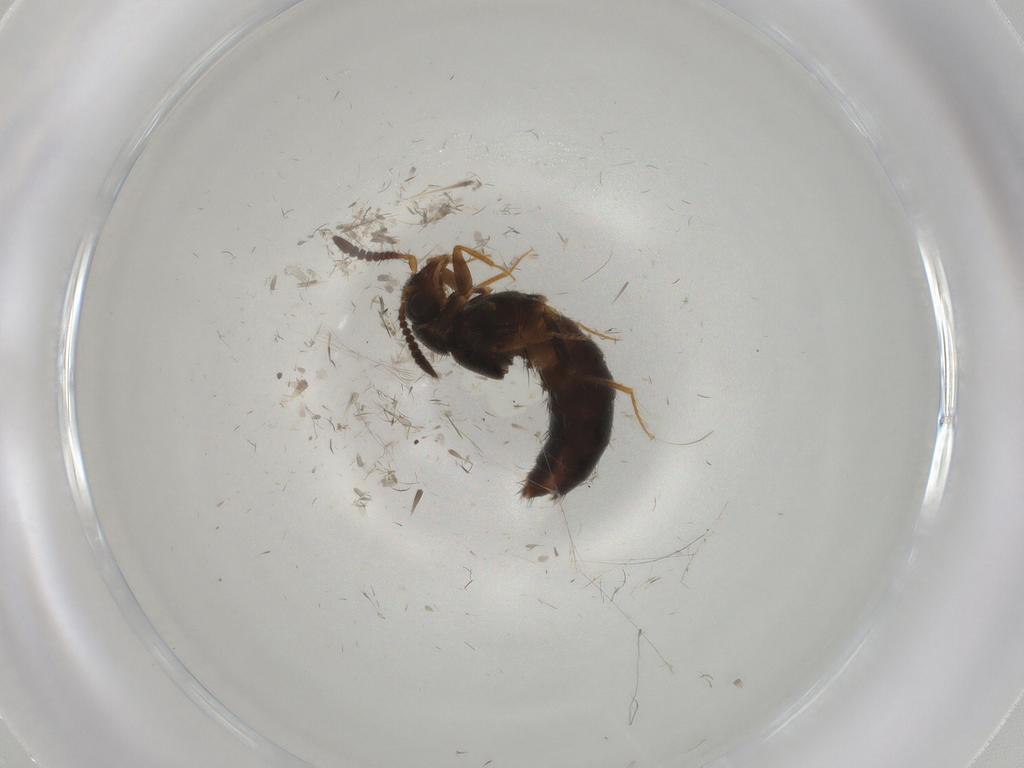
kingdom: Animalia
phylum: Arthropoda
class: Insecta
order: Coleoptera
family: Staphylinidae
